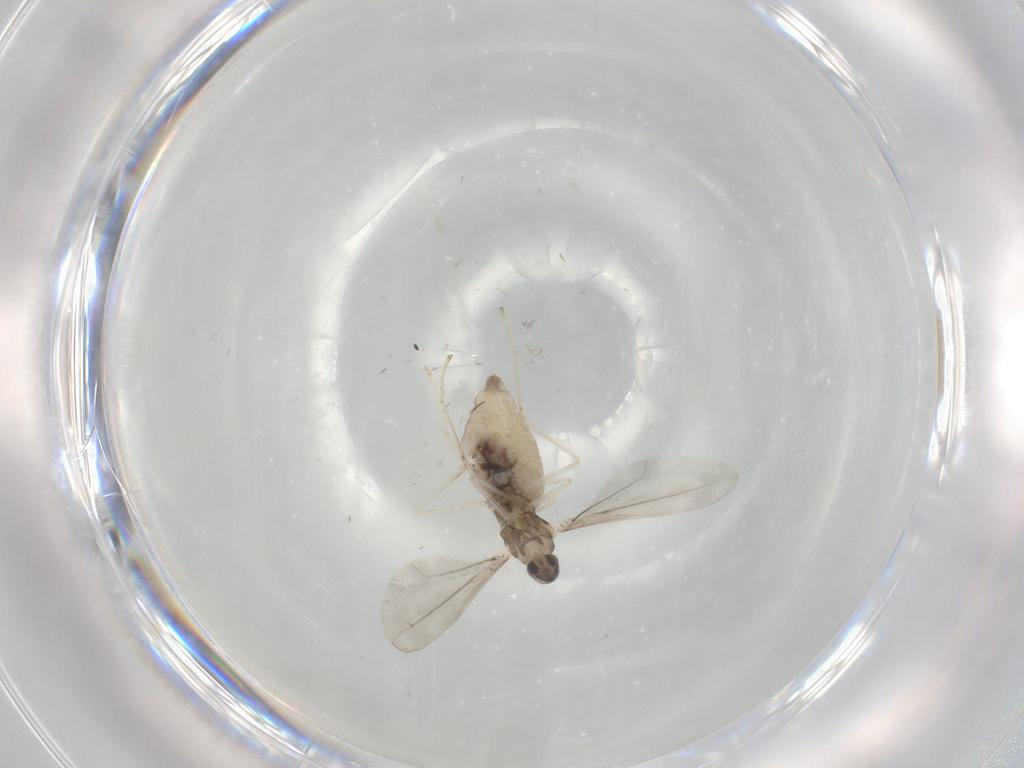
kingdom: Animalia
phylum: Arthropoda
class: Insecta
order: Diptera
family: Cecidomyiidae
